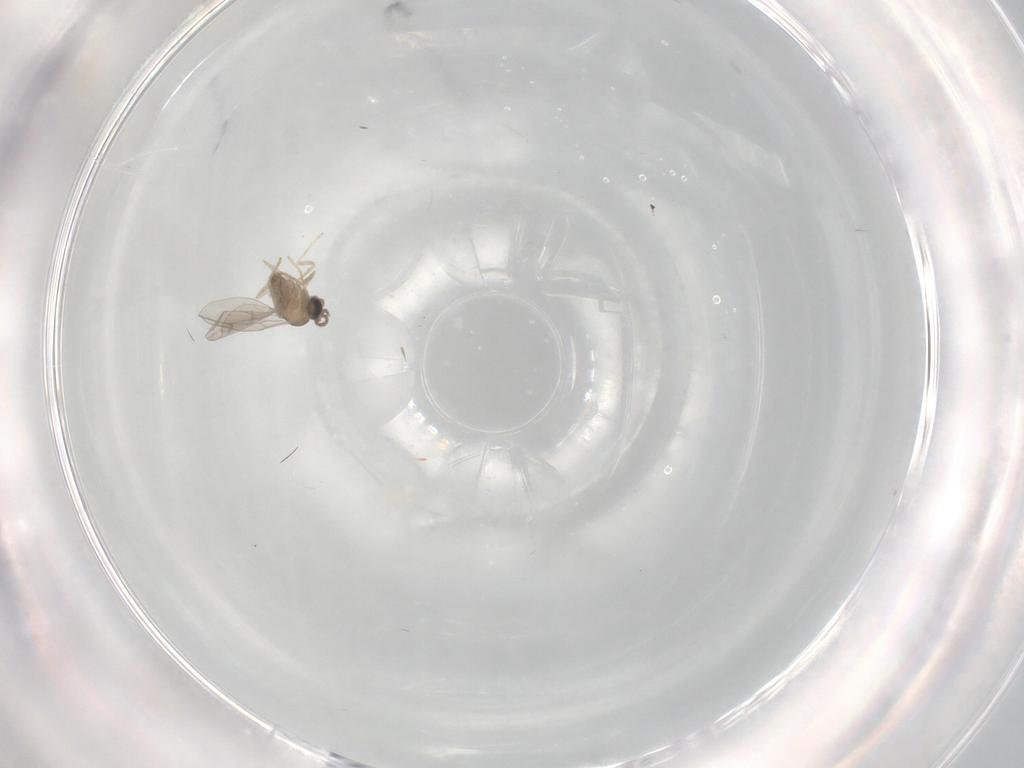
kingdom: Animalia
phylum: Arthropoda
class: Insecta
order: Diptera
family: Cecidomyiidae
